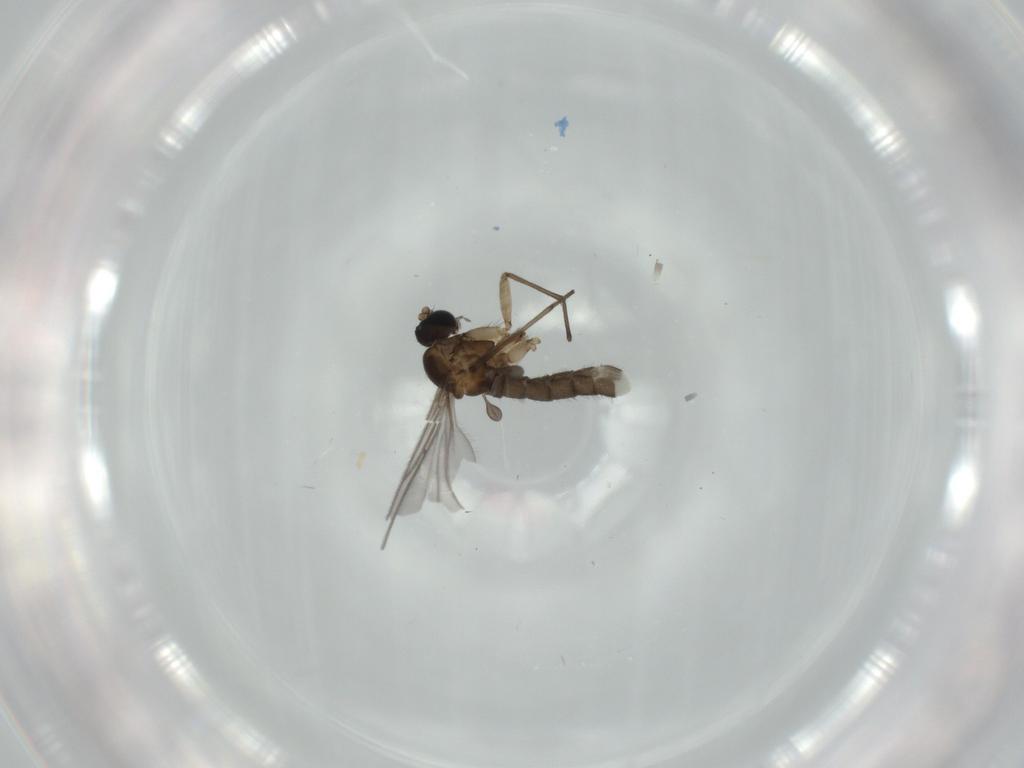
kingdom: Animalia
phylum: Arthropoda
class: Insecta
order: Diptera
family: Sciaridae
